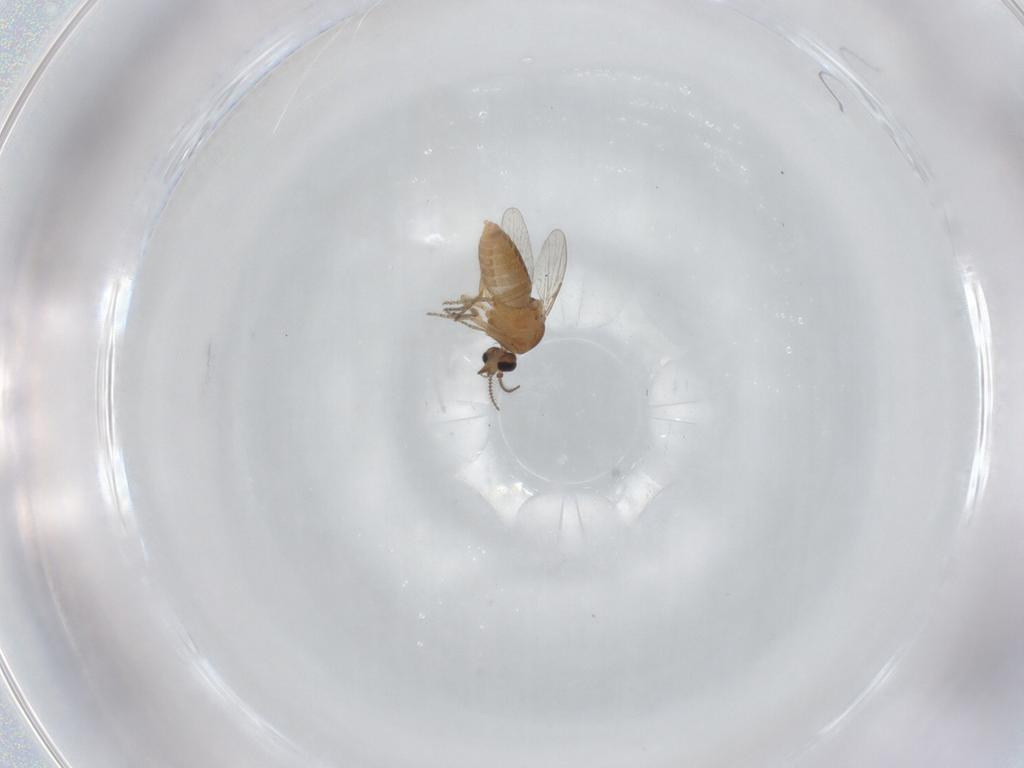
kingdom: Animalia
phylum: Arthropoda
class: Insecta
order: Diptera
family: Ceratopogonidae
